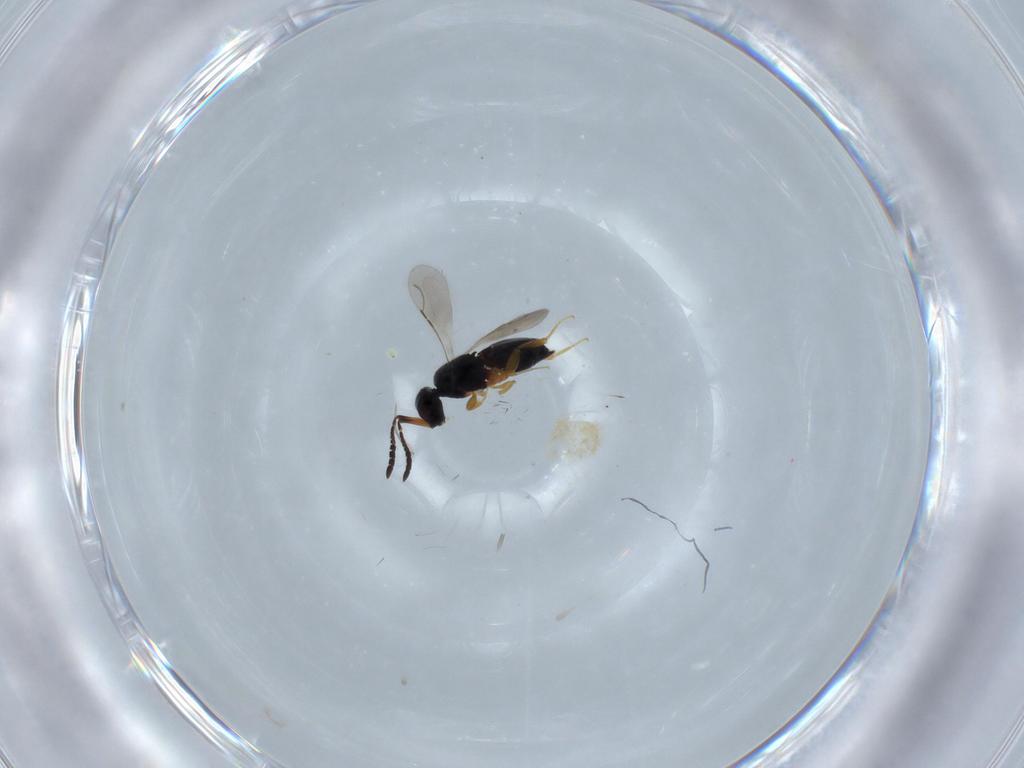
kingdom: Animalia
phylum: Arthropoda
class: Insecta
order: Hymenoptera
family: Diapriidae
